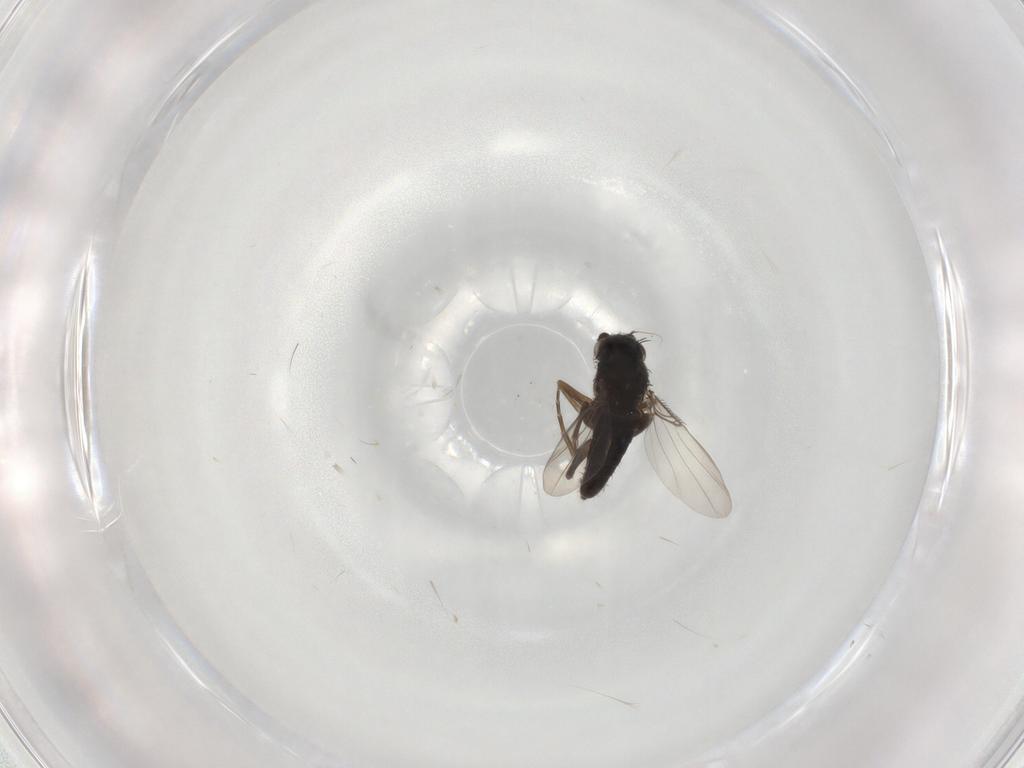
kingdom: Animalia
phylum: Arthropoda
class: Insecta
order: Diptera
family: Phoridae
